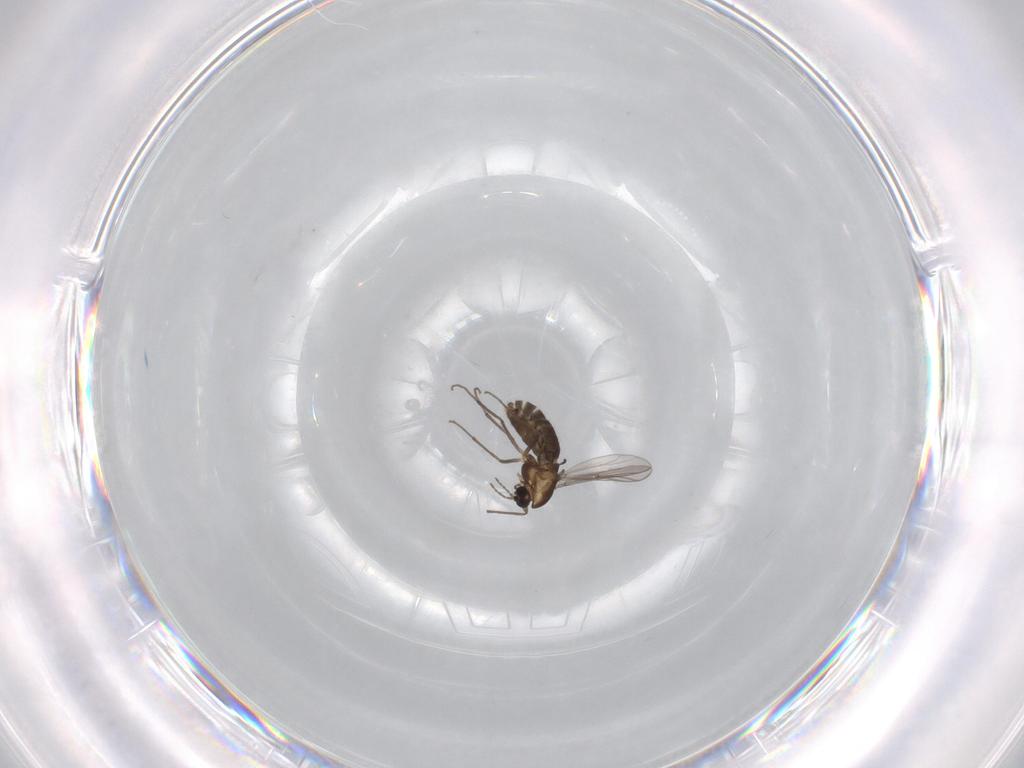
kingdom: Animalia
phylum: Arthropoda
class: Insecta
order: Diptera
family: Chironomidae
